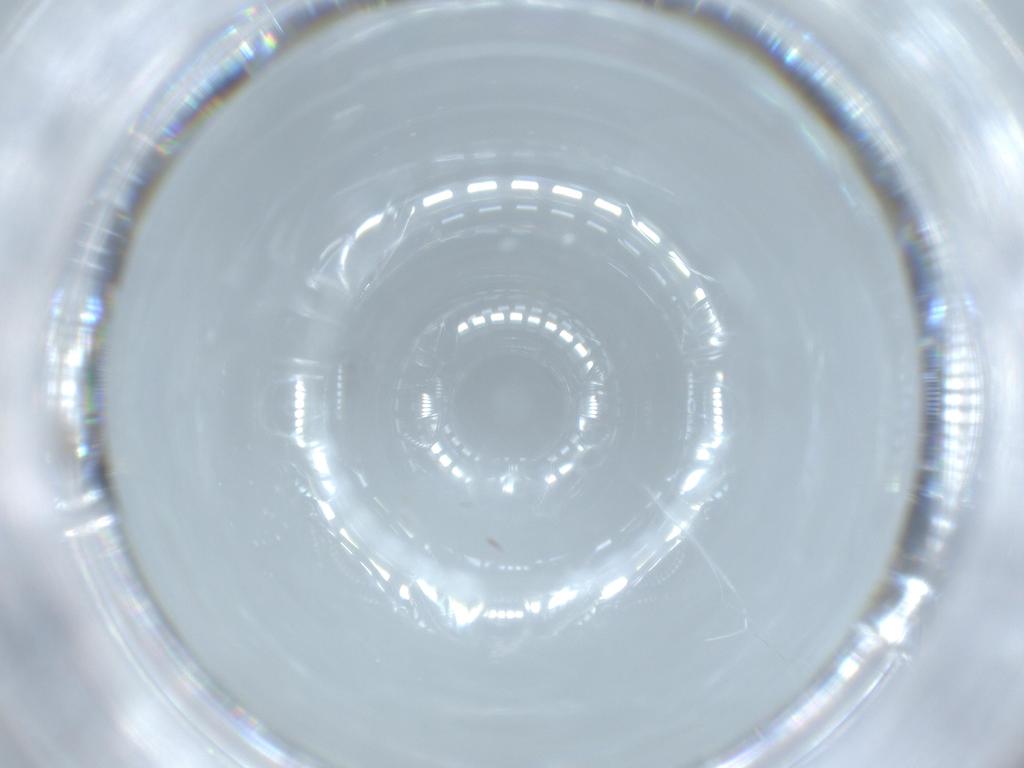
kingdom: Animalia
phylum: Arthropoda
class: Insecta
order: Hymenoptera
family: Mymaridae
